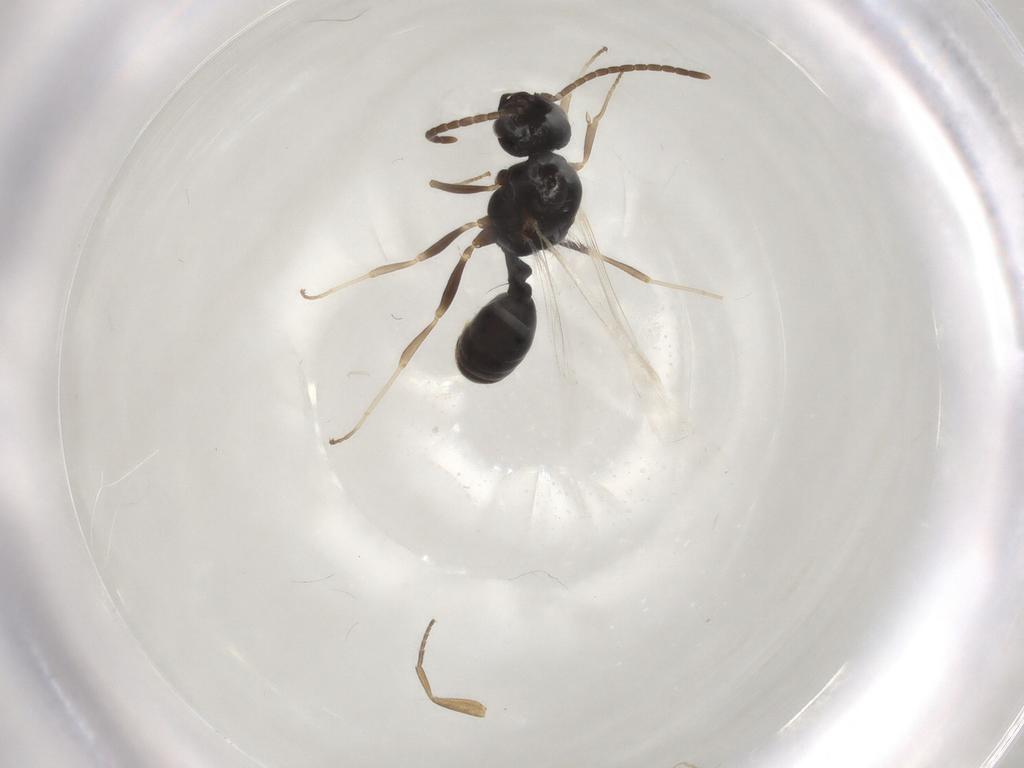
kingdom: Animalia
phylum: Arthropoda
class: Insecta
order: Hymenoptera
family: Formicidae
